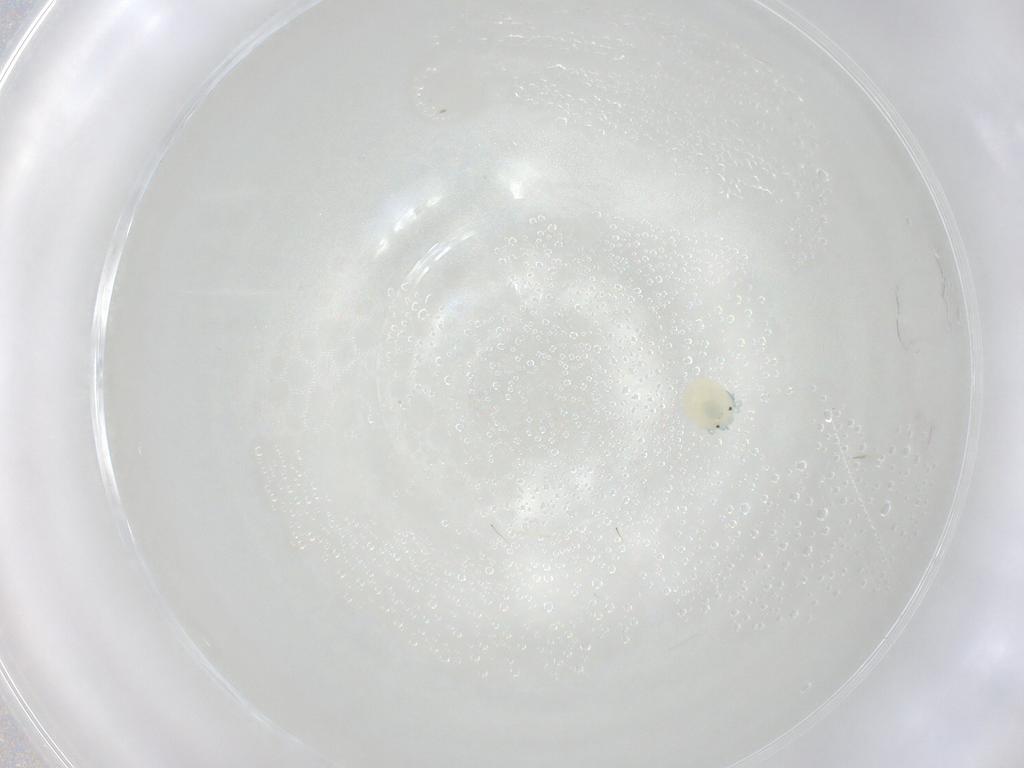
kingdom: Animalia
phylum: Arthropoda
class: Arachnida
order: Trombidiformes
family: Arrenuridae
